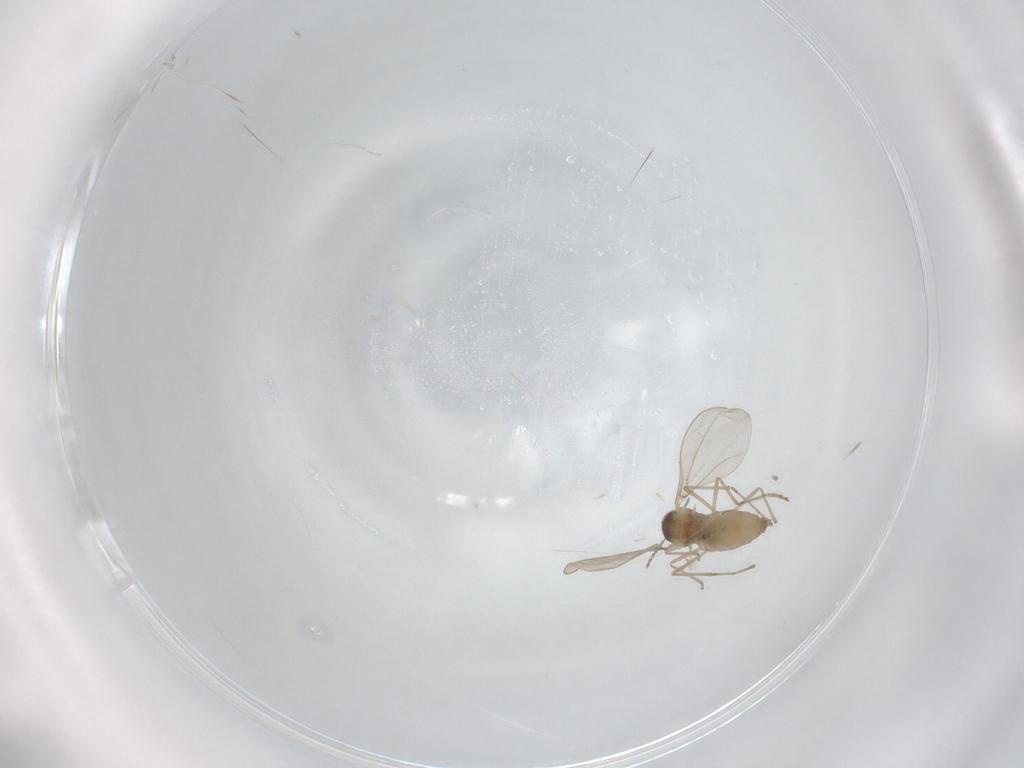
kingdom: Animalia
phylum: Arthropoda
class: Insecta
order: Diptera
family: Cecidomyiidae
